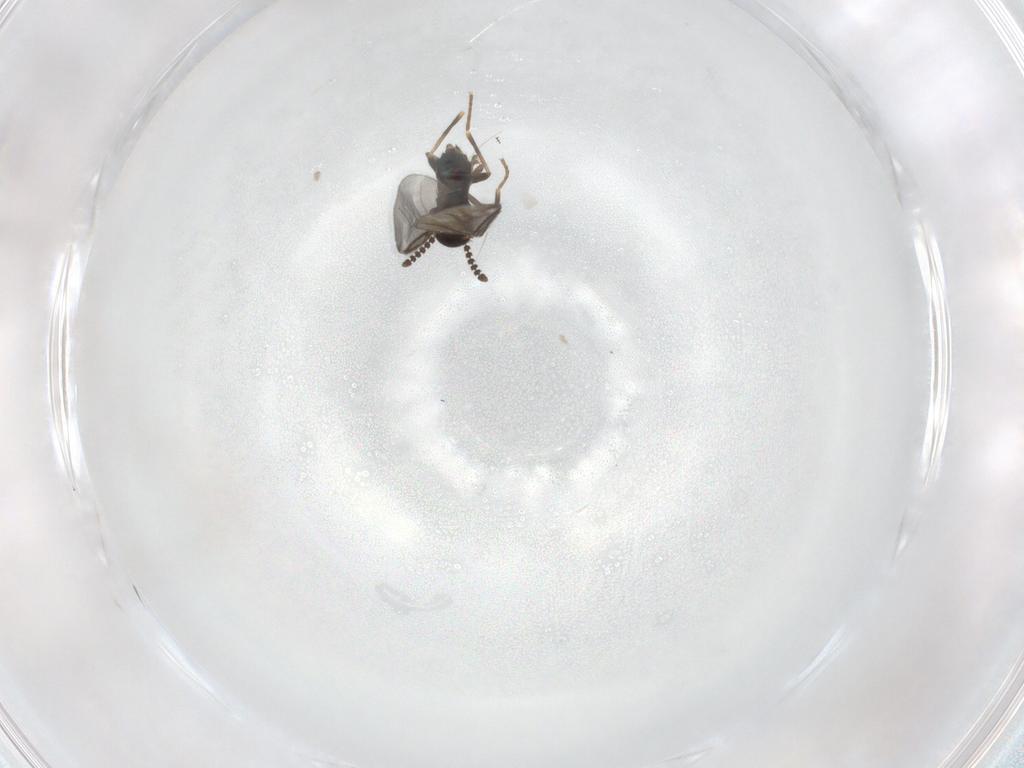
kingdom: Animalia
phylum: Arthropoda
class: Insecta
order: Diptera
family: Scatopsidae
